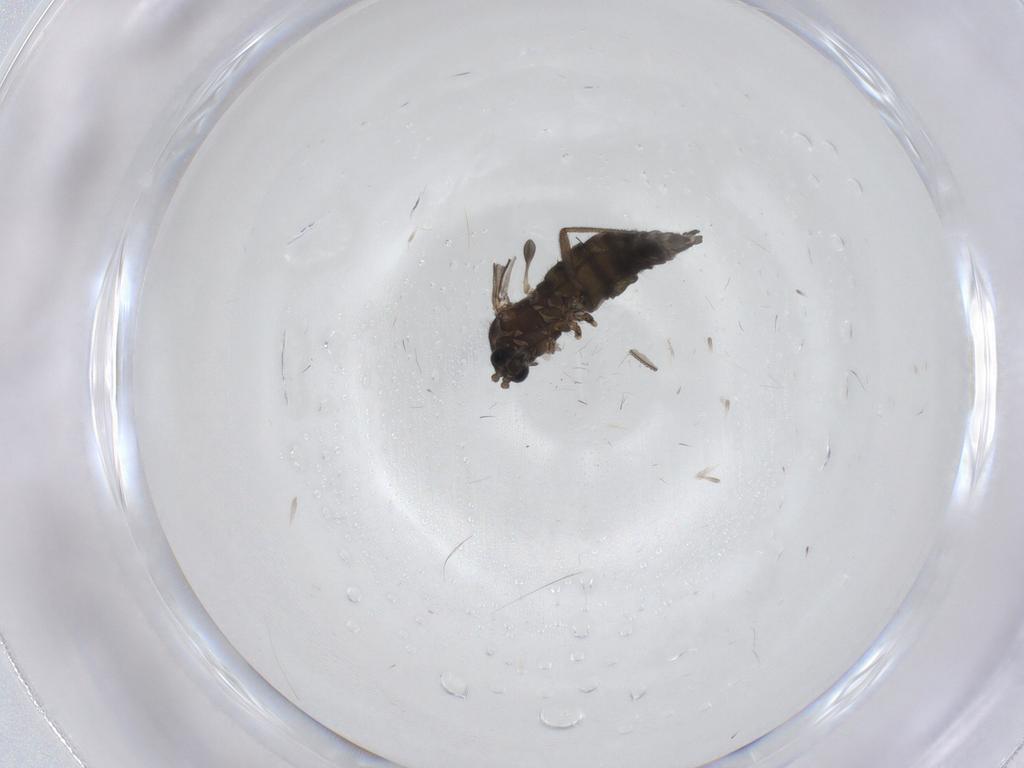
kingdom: Animalia
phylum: Arthropoda
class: Insecta
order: Diptera
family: Sciaridae
